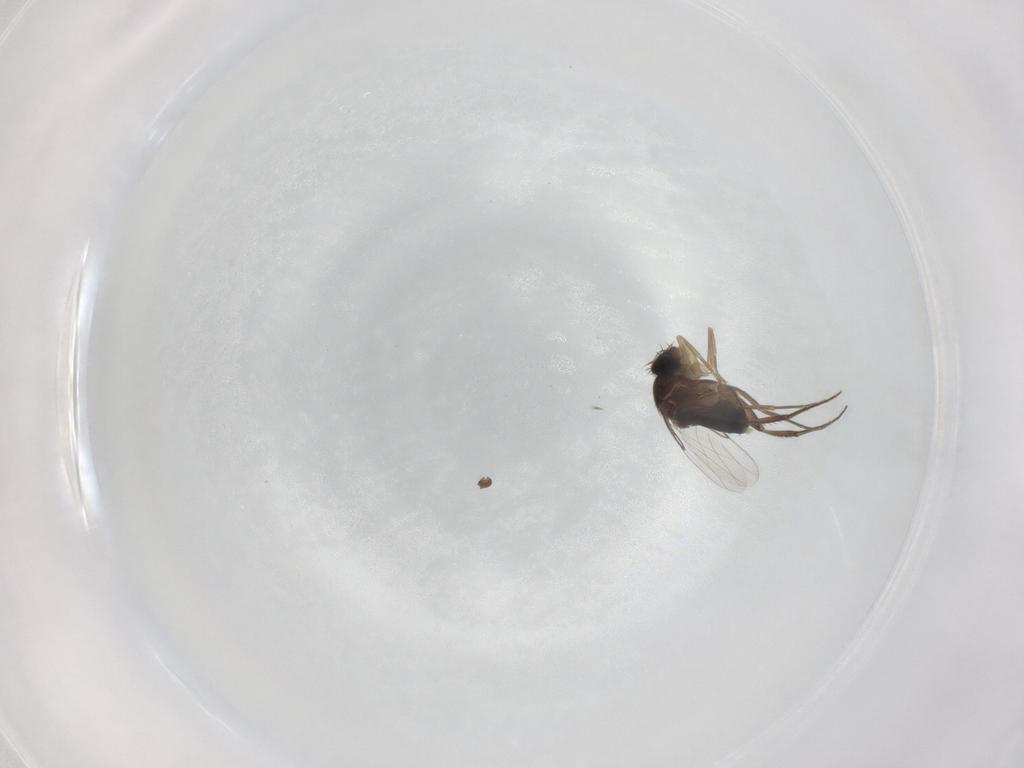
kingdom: Animalia
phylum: Arthropoda
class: Insecta
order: Diptera
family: Phoridae
